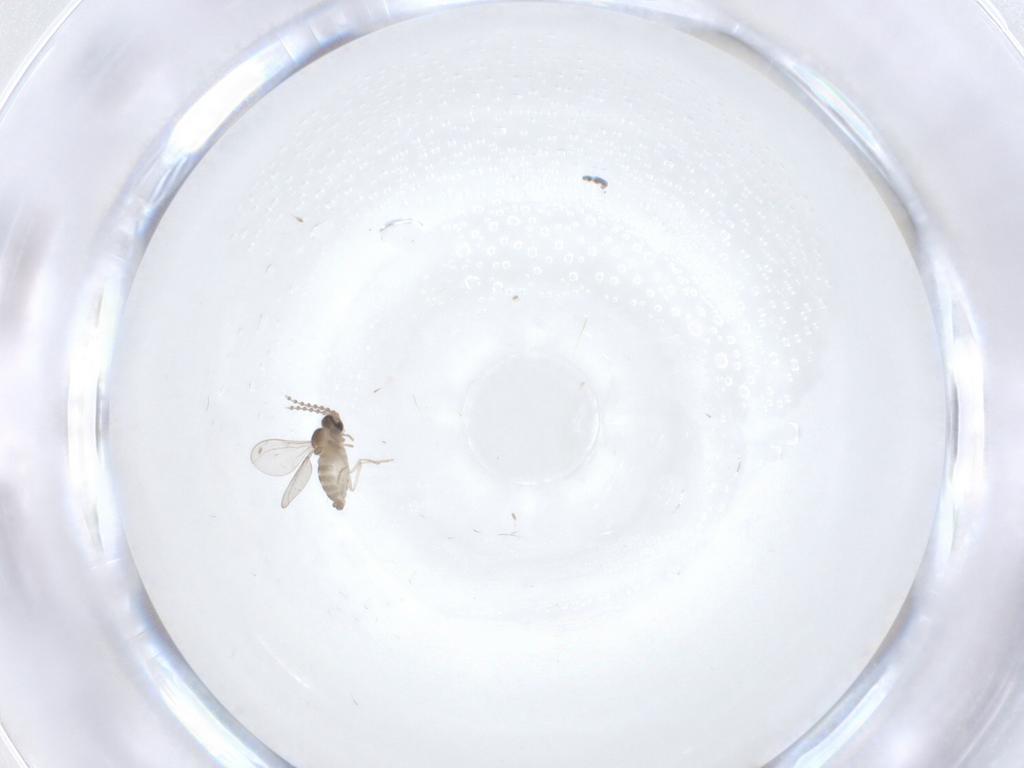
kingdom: Animalia
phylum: Arthropoda
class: Insecta
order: Diptera
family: Cecidomyiidae
